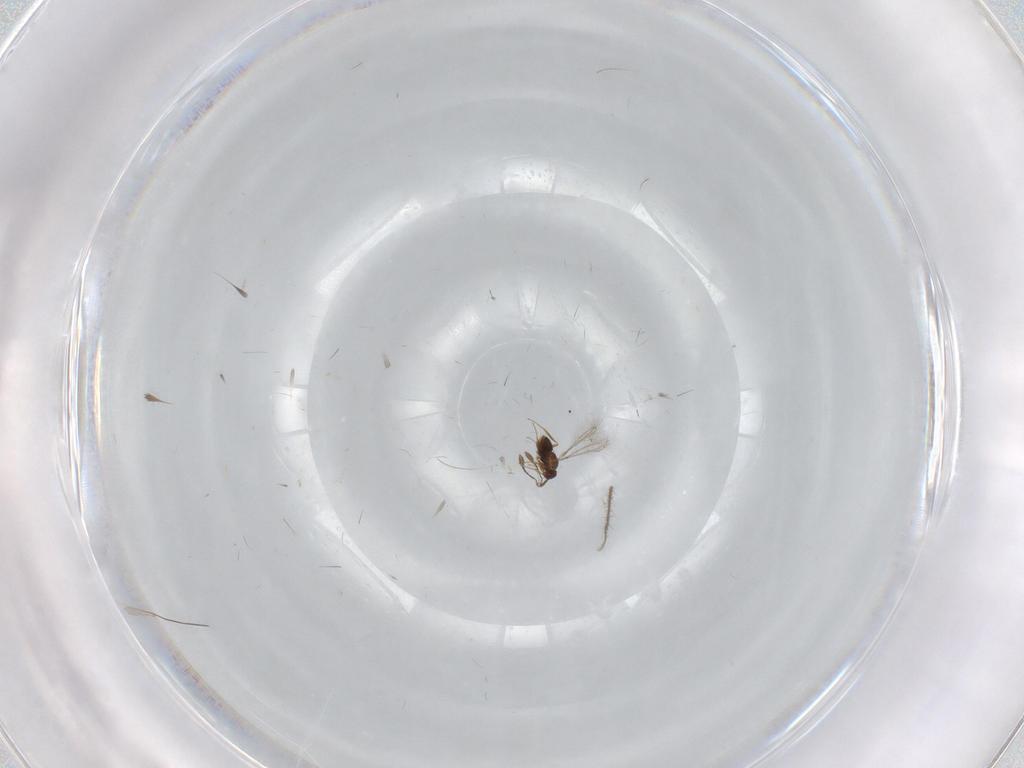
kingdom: Animalia
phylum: Arthropoda
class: Insecta
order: Hymenoptera
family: Mymaridae
